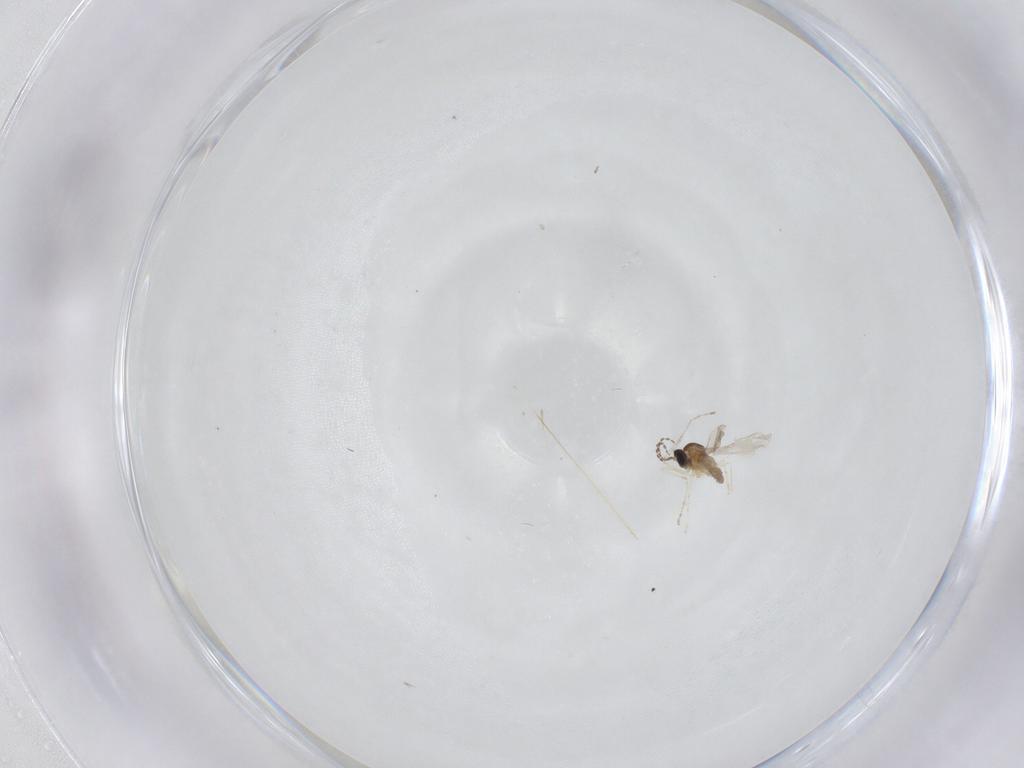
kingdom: Animalia
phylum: Arthropoda
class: Insecta
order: Diptera
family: Cecidomyiidae
